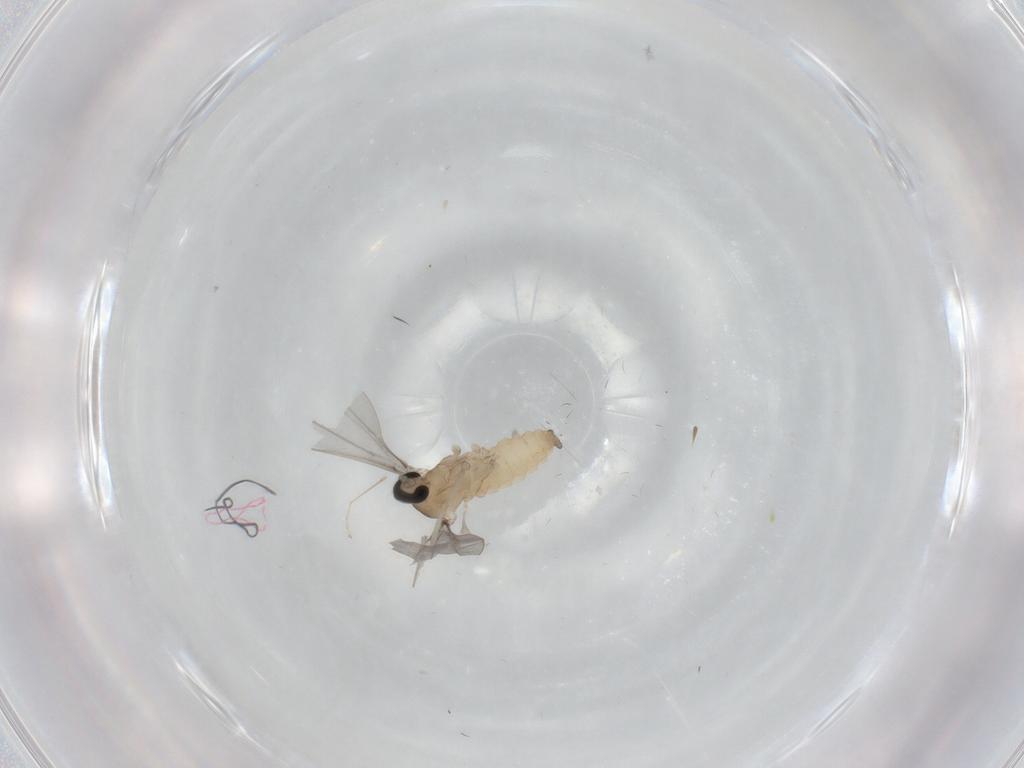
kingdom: Animalia
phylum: Arthropoda
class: Insecta
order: Diptera
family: Cecidomyiidae
